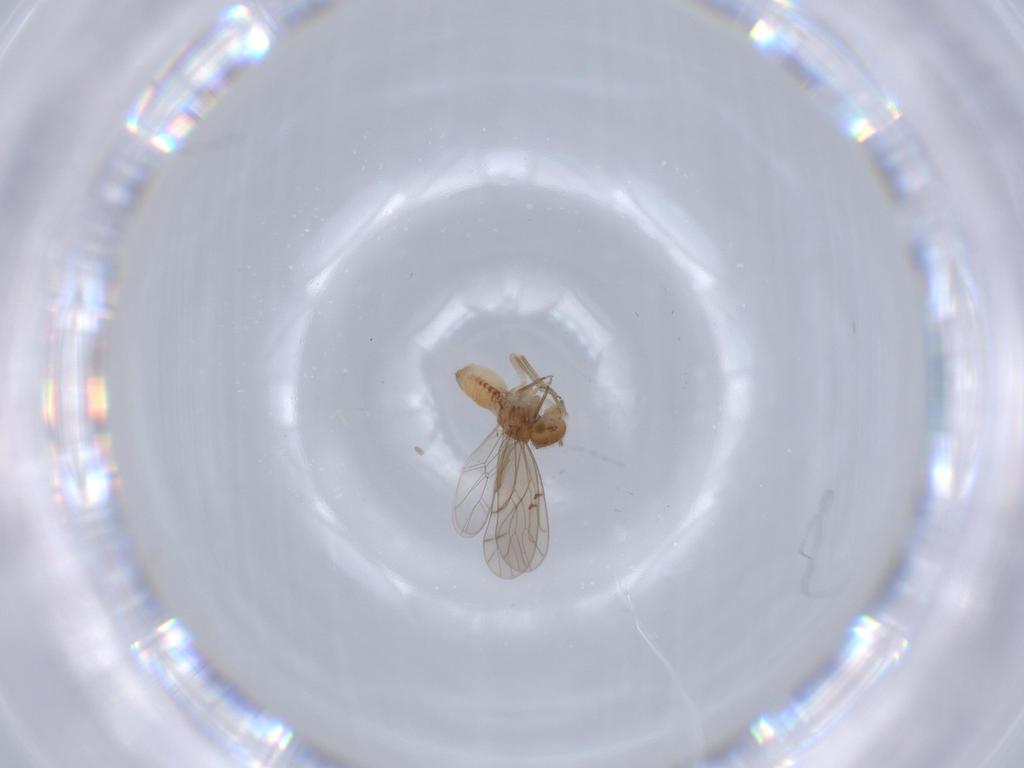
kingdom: Animalia
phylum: Arthropoda
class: Insecta
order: Psocodea
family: Ectopsocidae
